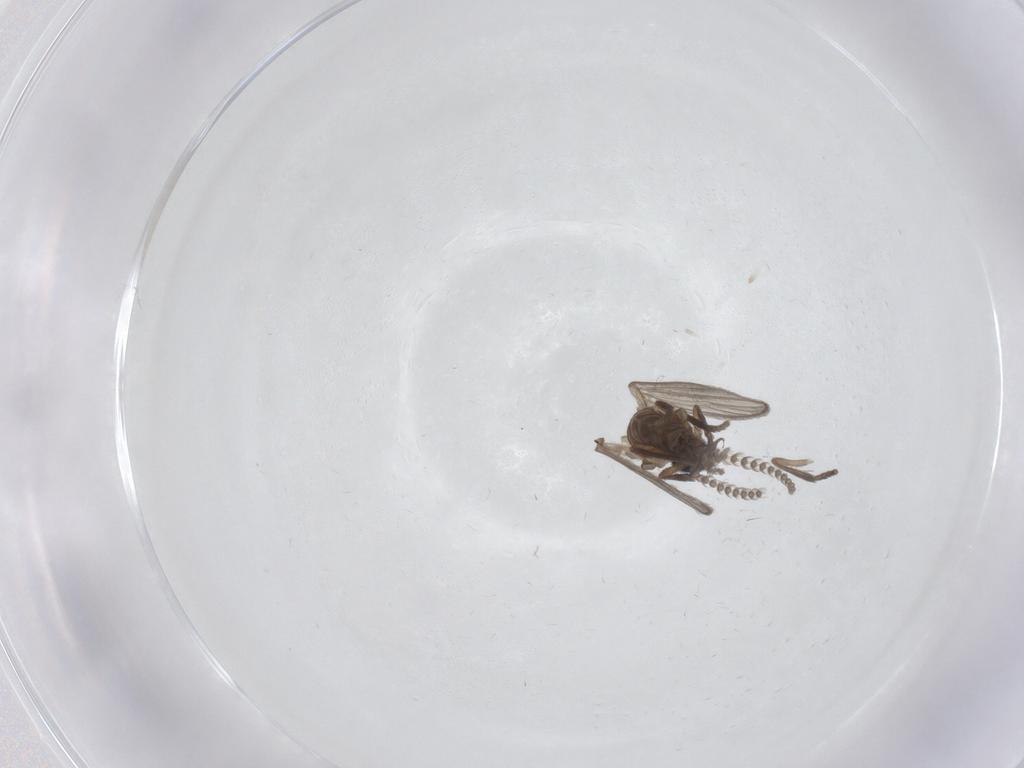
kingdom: Animalia
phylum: Arthropoda
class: Insecta
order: Diptera
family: Psychodidae
